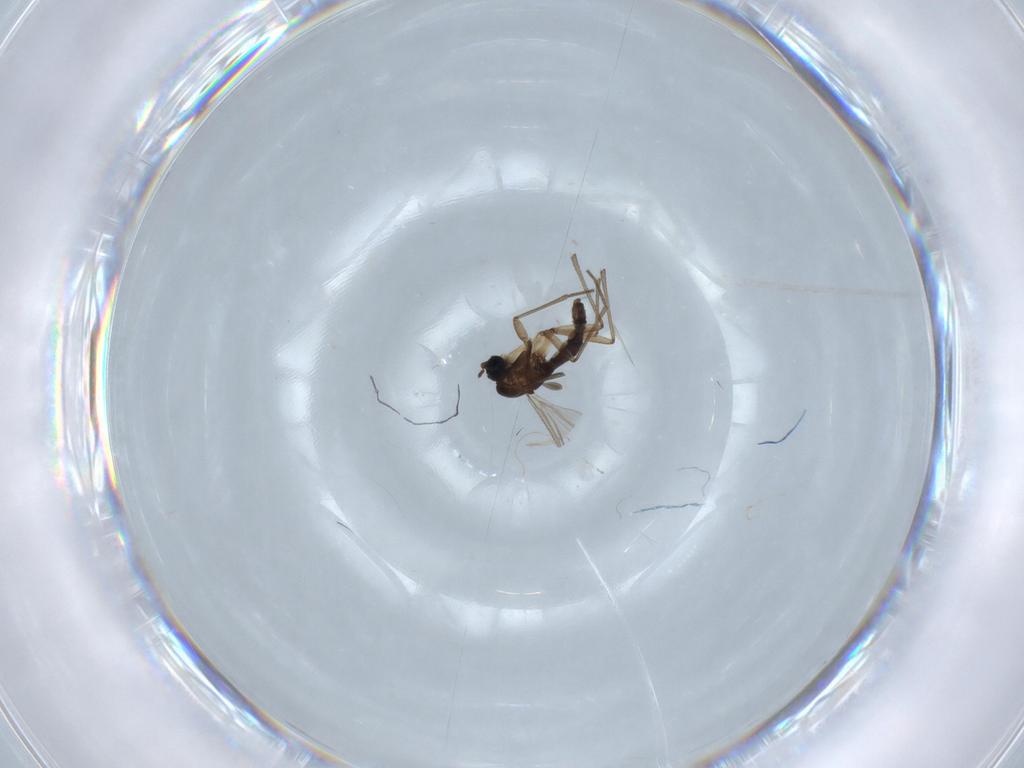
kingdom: Animalia
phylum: Arthropoda
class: Insecta
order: Diptera
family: Sciaridae
